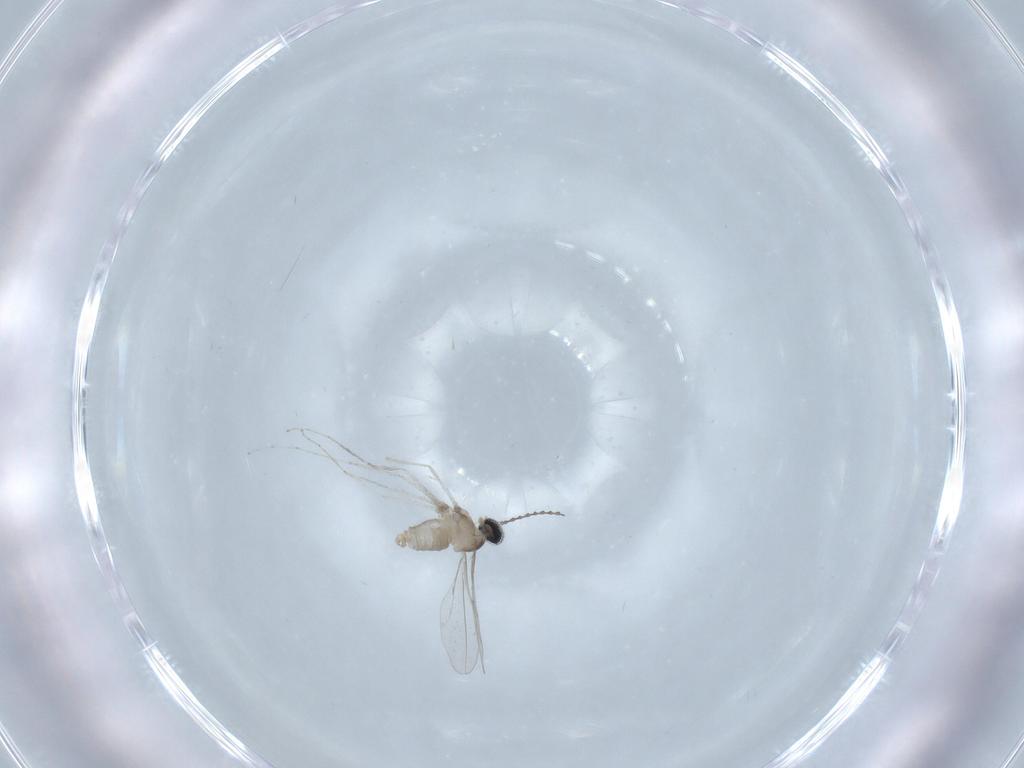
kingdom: Animalia
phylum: Arthropoda
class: Insecta
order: Diptera
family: Cecidomyiidae
